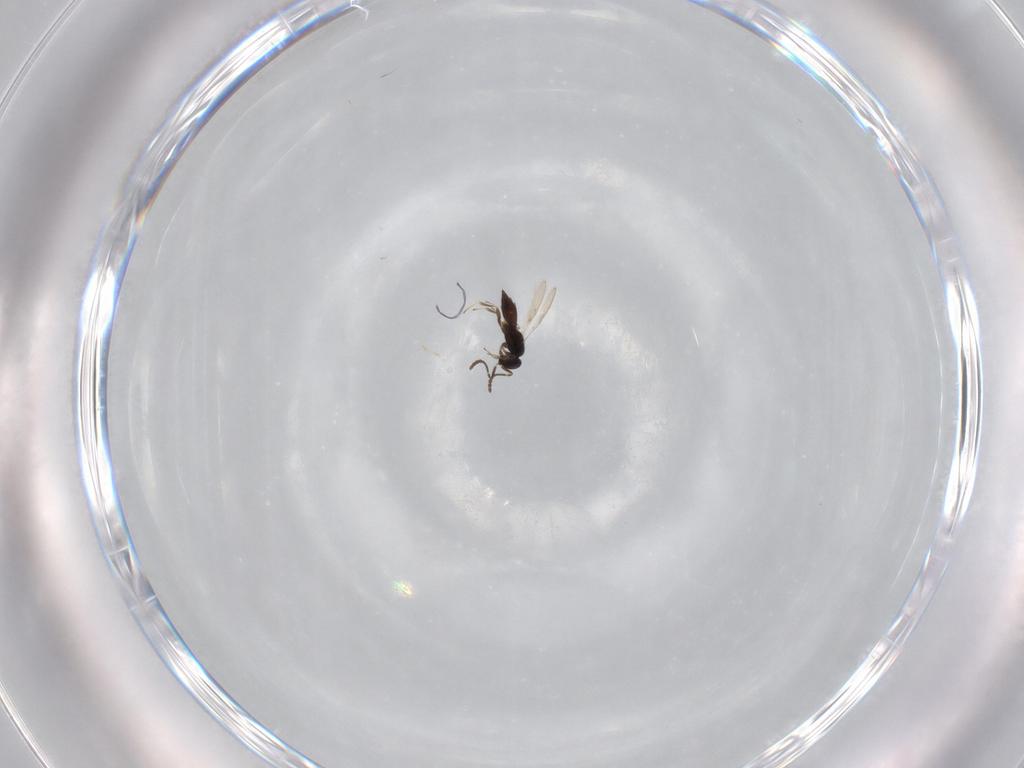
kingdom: Animalia
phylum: Arthropoda
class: Insecta
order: Hymenoptera
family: Scelionidae
